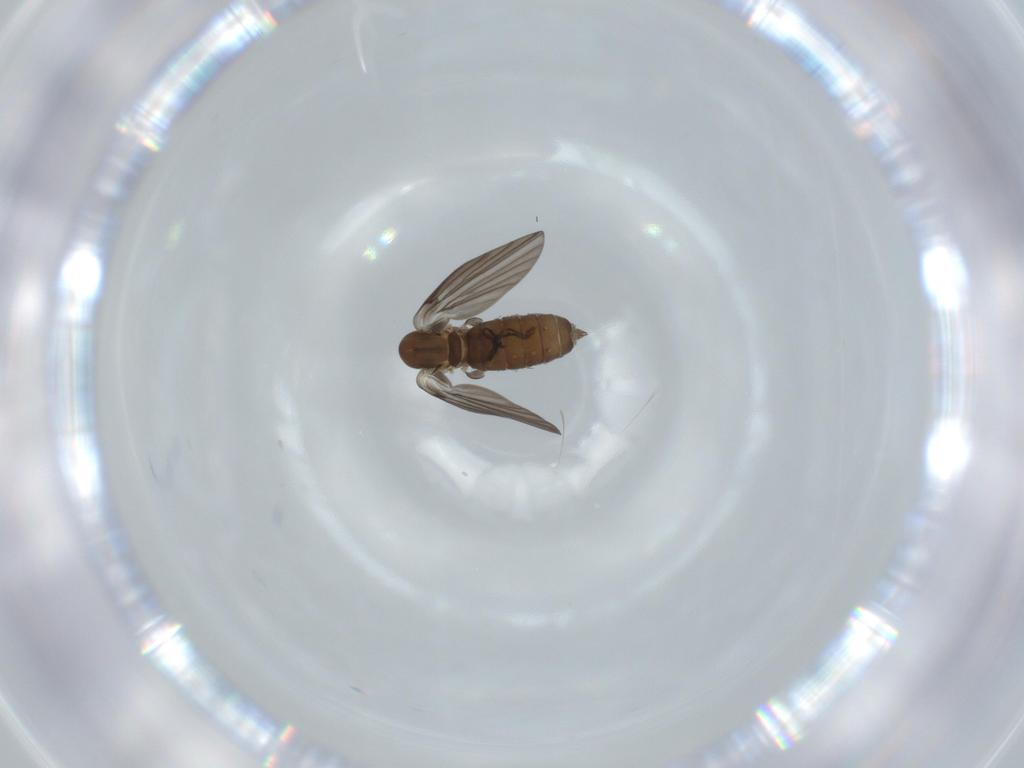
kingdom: Animalia
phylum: Arthropoda
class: Insecta
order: Diptera
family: Psychodidae
